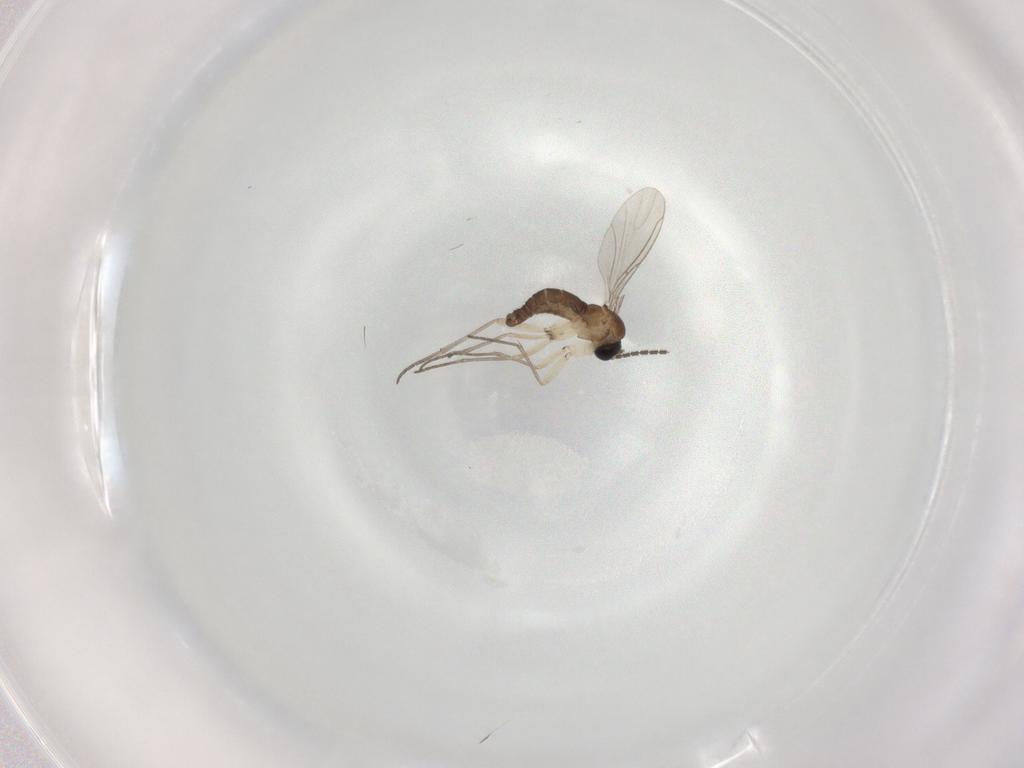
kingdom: Animalia
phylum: Arthropoda
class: Insecta
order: Diptera
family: Sciaridae
